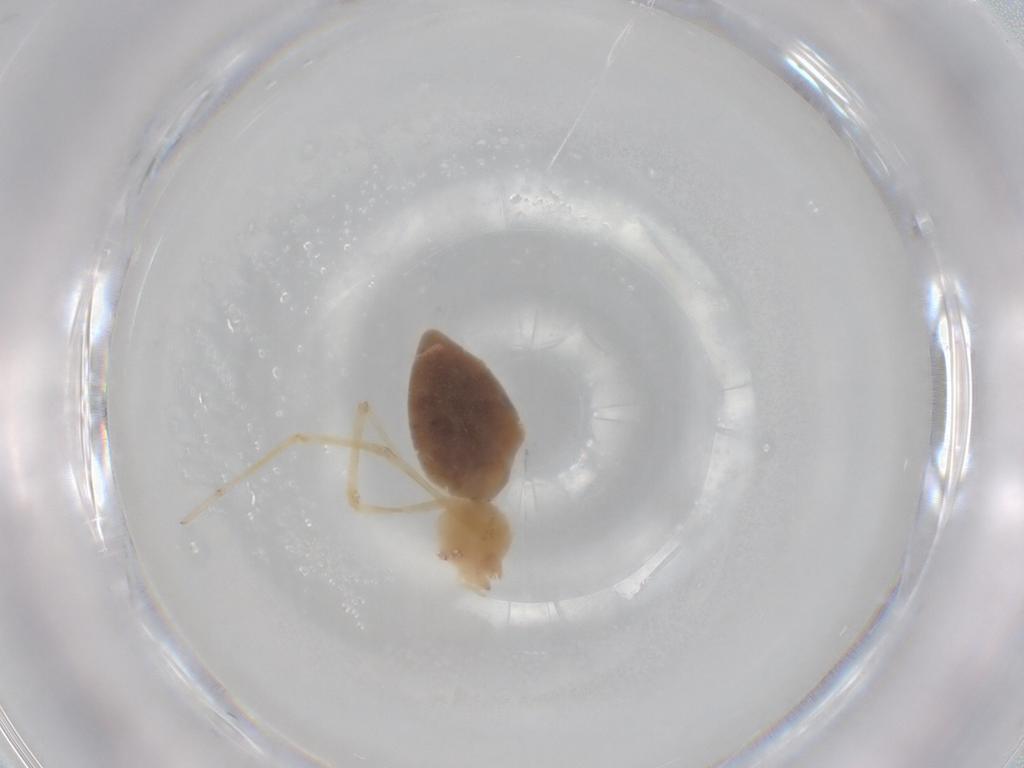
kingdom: Animalia
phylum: Arthropoda
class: Arachnida
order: Araneae
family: Pholcidae
